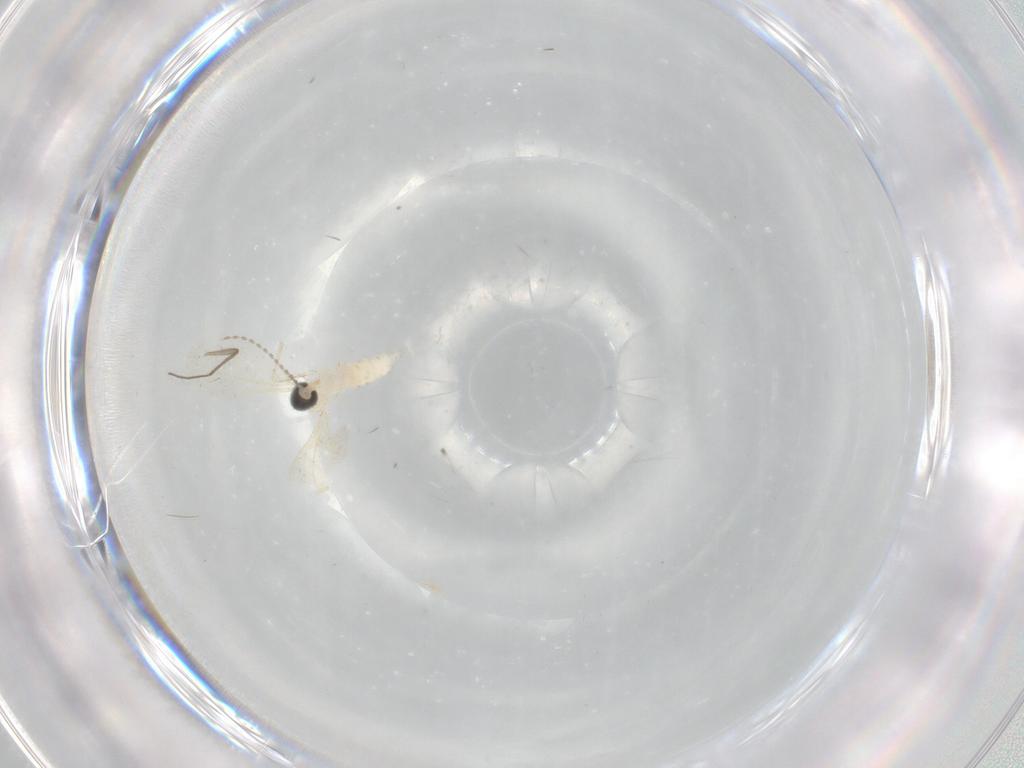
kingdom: Animalia
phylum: Arthropoda
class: Insecta
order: Diptera
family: Cecidomyiidae
